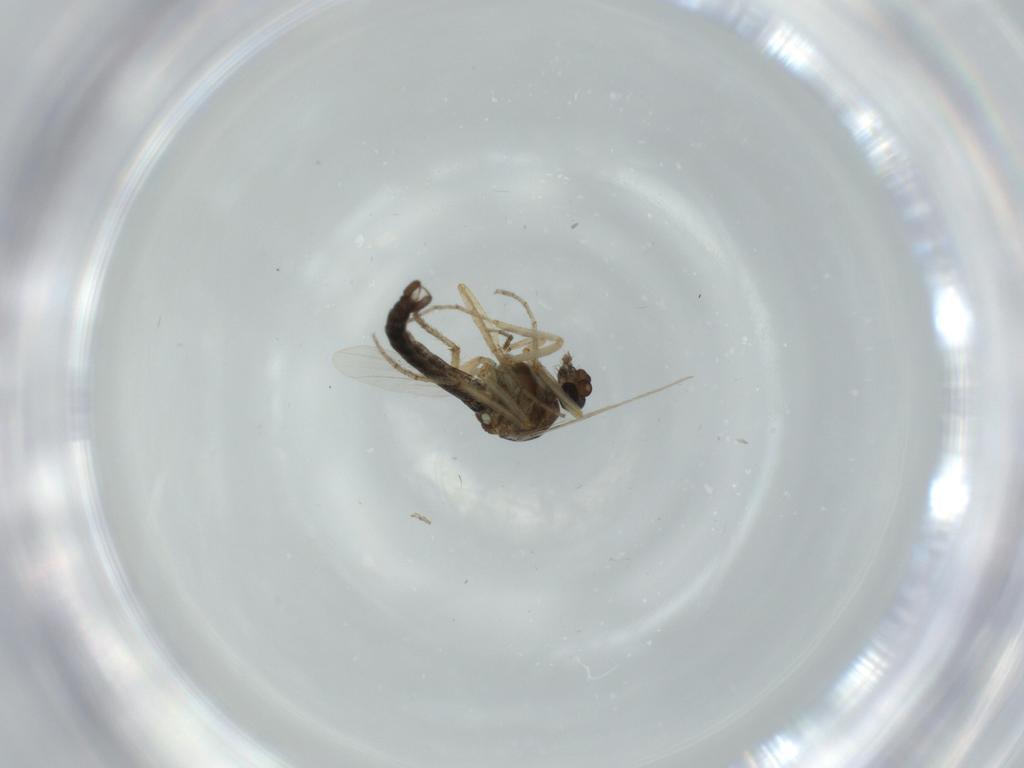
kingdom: Animalia
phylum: Arthropoda
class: Insecta
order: Diptera
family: Ceratopogonidae
